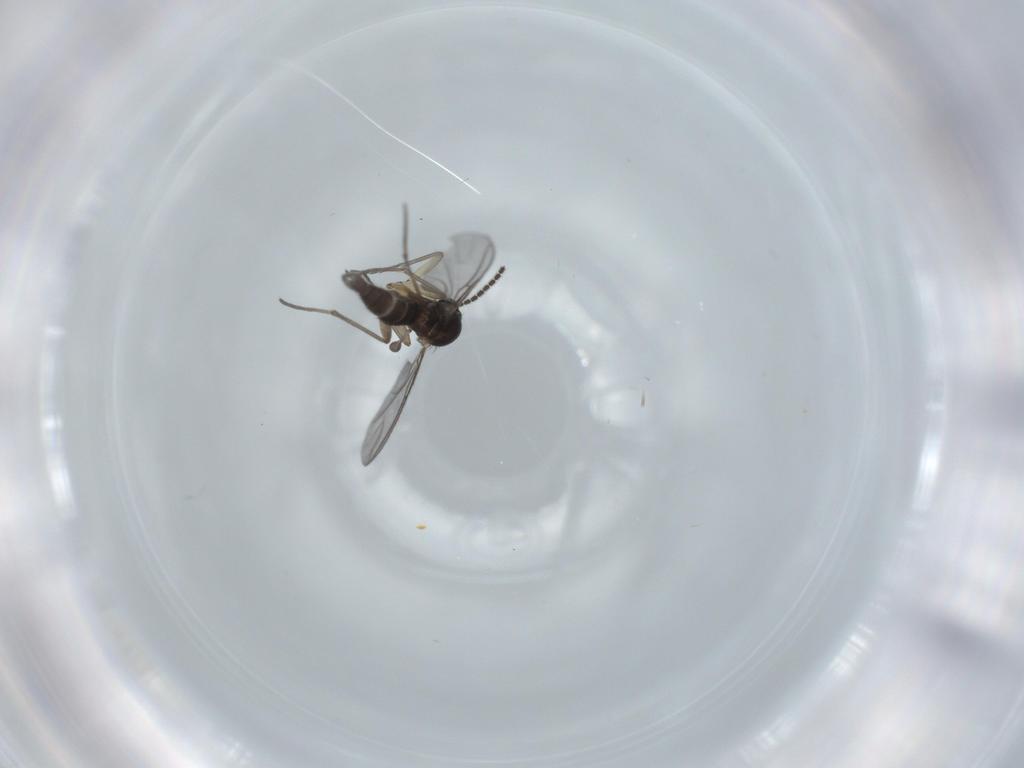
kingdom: Animalia
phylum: Arthropoda
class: Insecta
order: Diptera
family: Sciaridae
